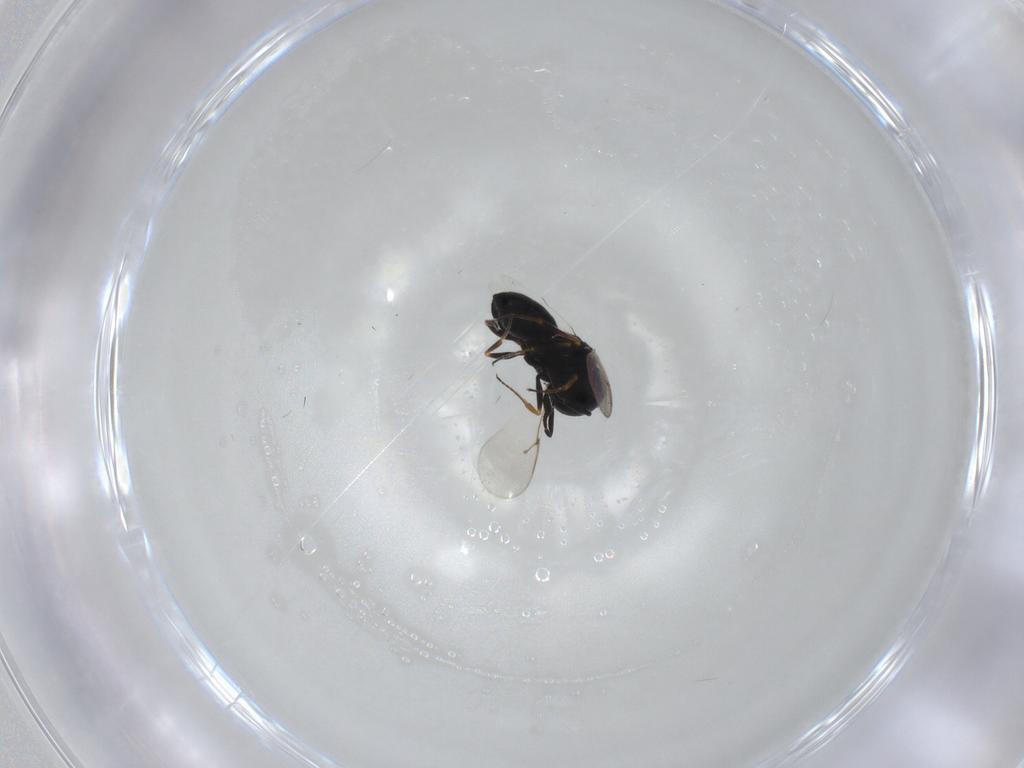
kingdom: Animalia
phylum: Arthropoda
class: Insecta
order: Hymenoptera
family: Scelionidae
